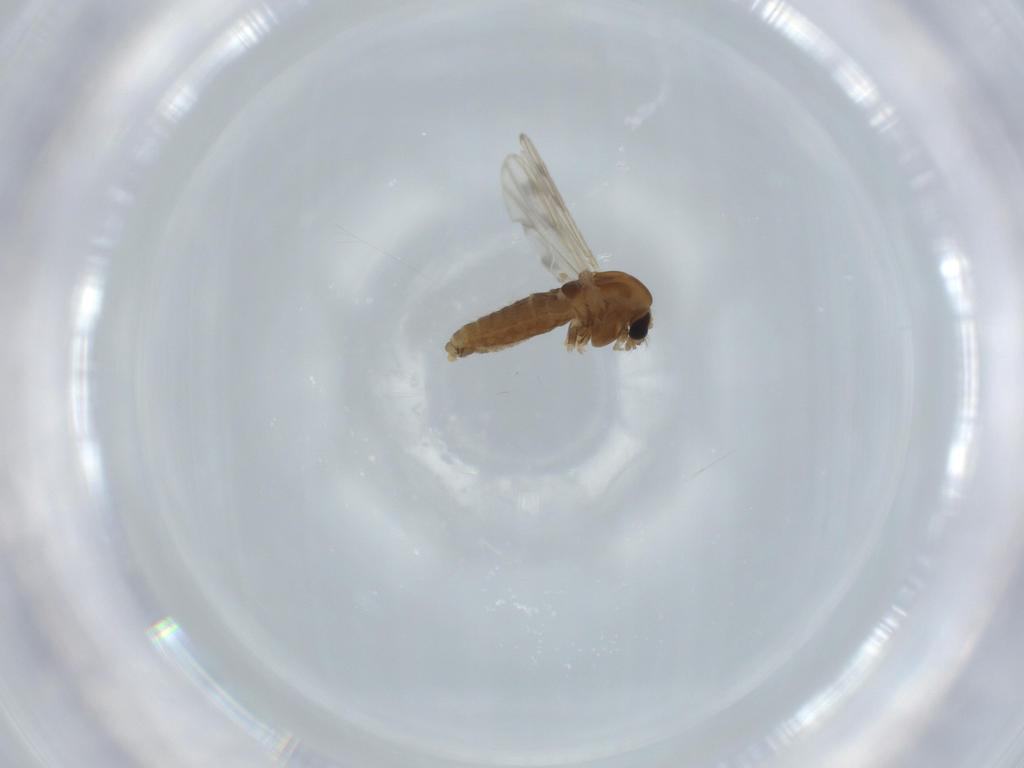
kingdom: Animalia
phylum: Arthropoda
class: Insecta
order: Diptera
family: Chironomidae
